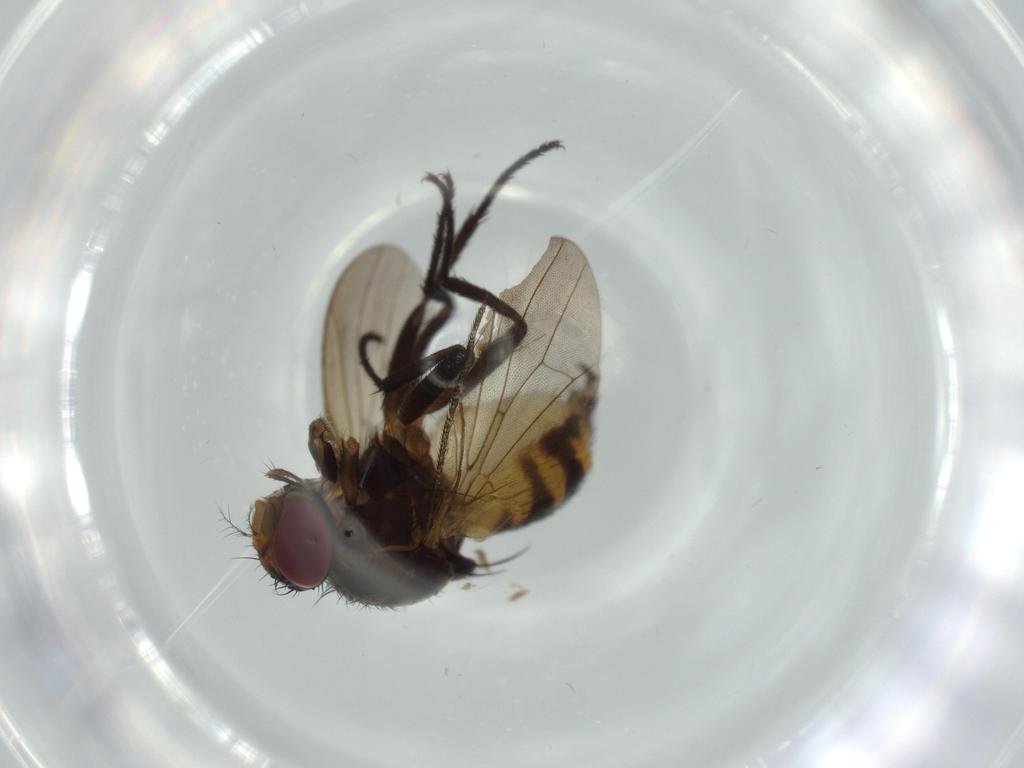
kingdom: Animalia
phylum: Arthropoda
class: Insecta
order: Diptera
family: Anthomyiidae
